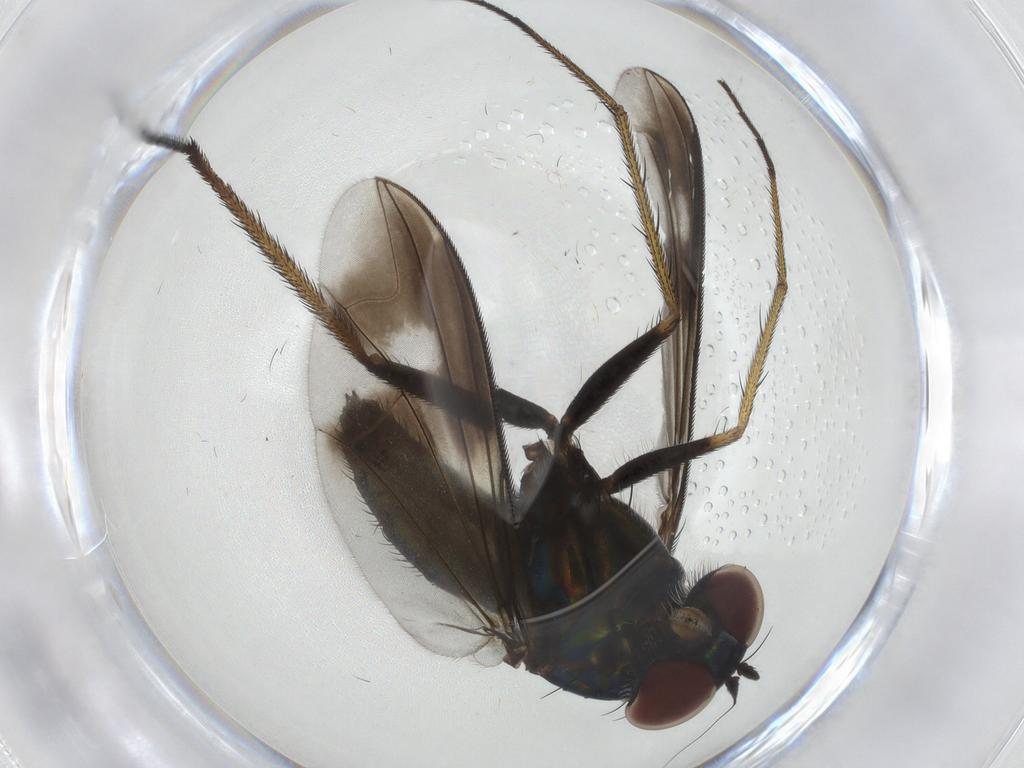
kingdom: Animalia
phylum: Arthropoda
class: Insecta
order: Diptera
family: Dolichopodidae
